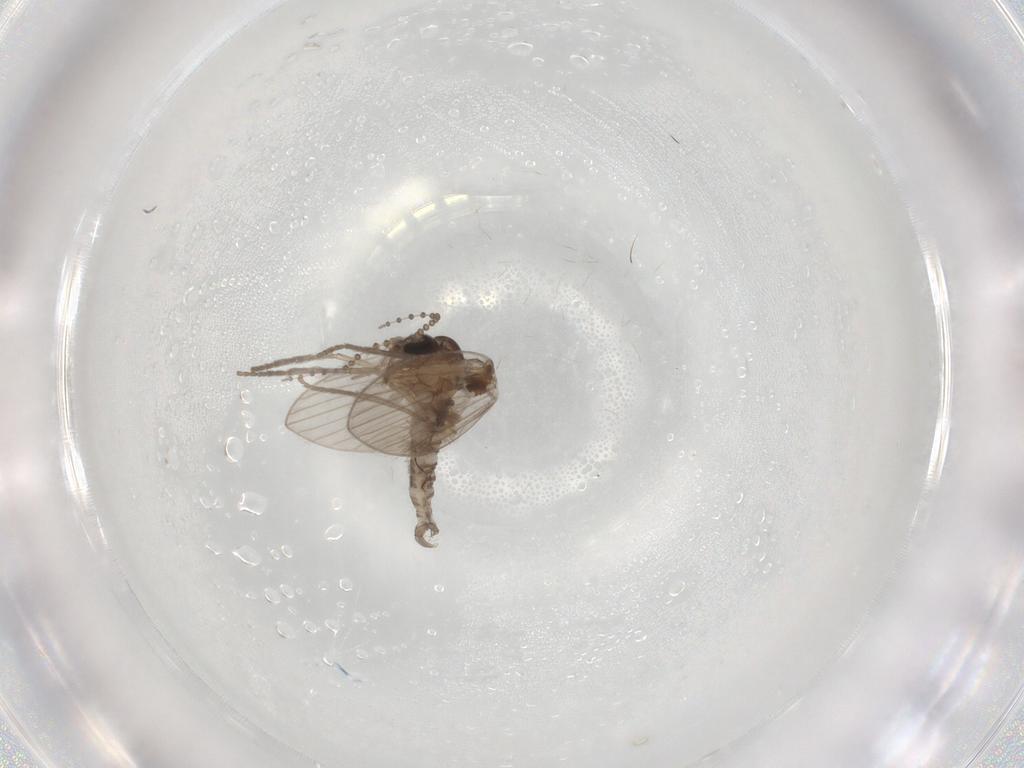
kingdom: Animalia
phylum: Arthropoda
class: Insecta
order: Diptera
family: Psychodidae
